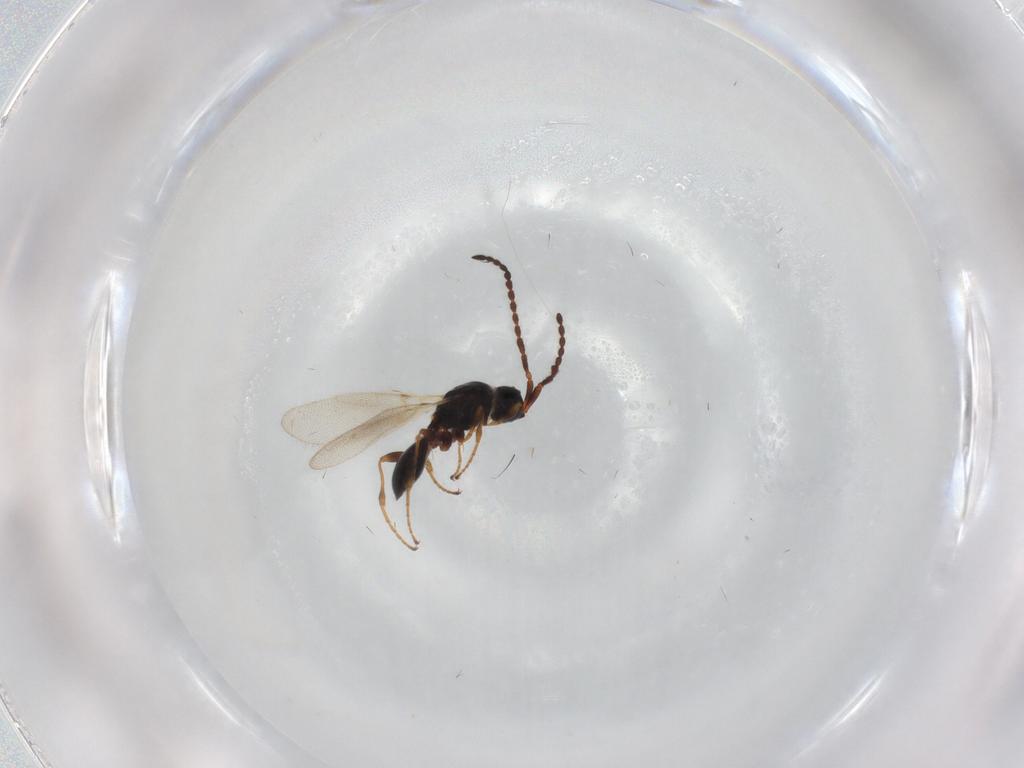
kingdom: Animalia
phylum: Arthropoda
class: Insecta
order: Hymenoptera
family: Diapriidae
